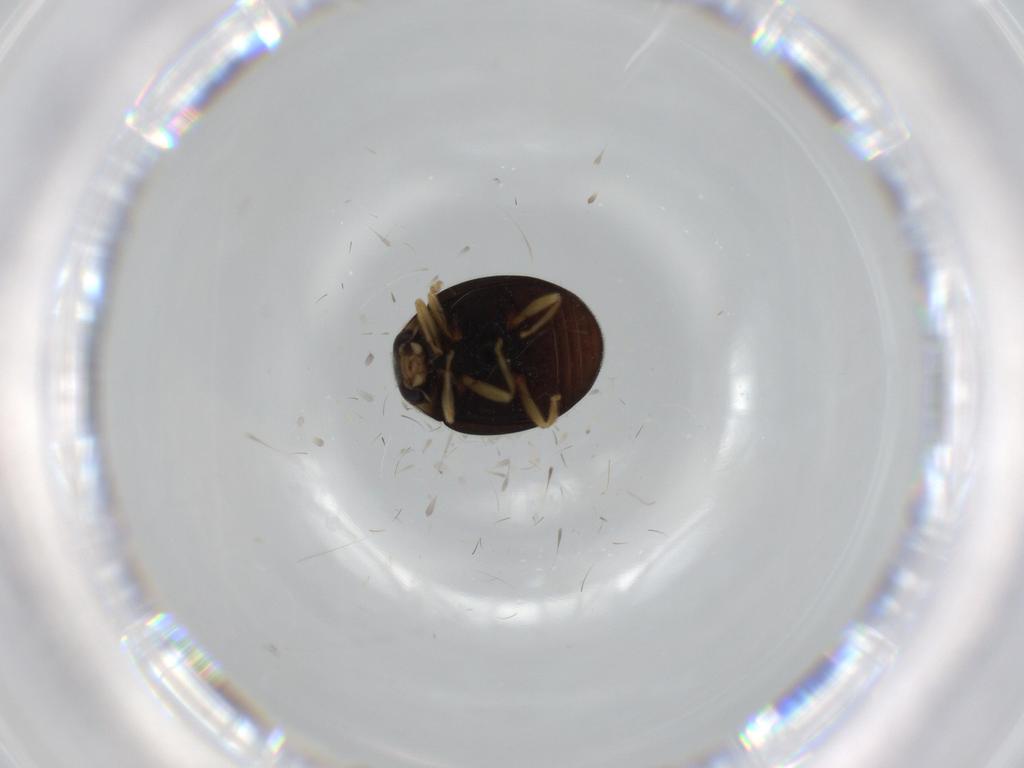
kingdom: Animalia
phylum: Arthropoda
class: Insecta
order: Coleoptera
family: Coccinellidae
